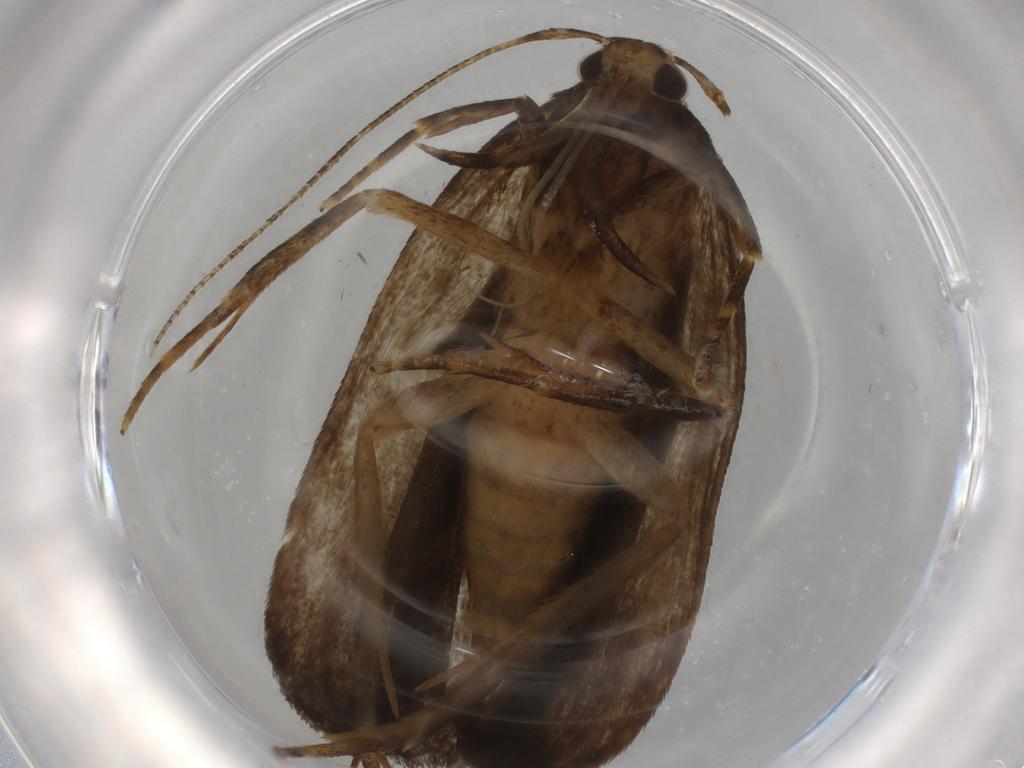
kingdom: Animalia
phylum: Arthropoda
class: Insecta
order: Lepidoptera
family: Autostichidae
